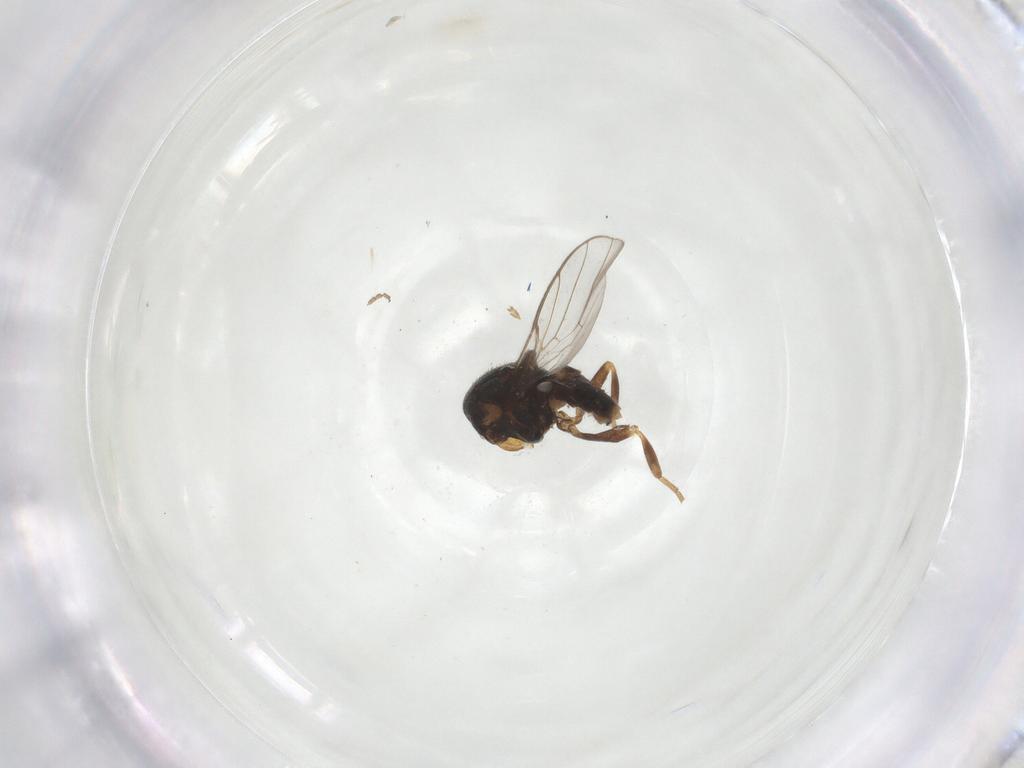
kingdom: Animalia
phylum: Arthropoda
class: Insecta
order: Diptera
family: Chloropidae
